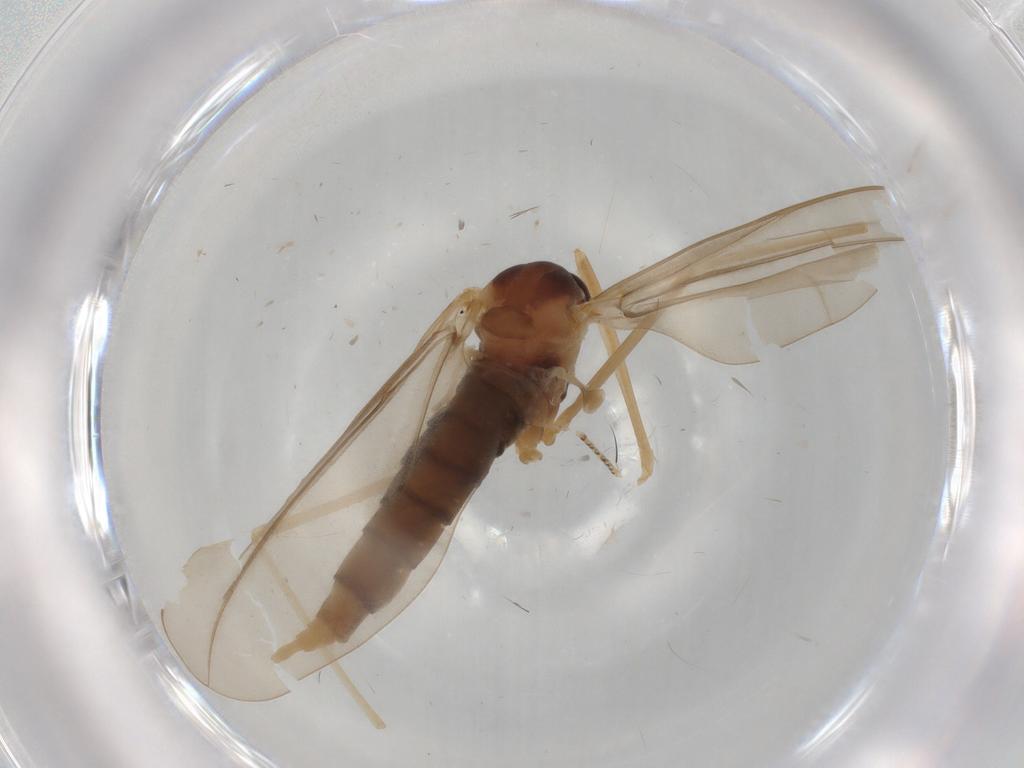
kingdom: Animalia
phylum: Arthropoda
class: Insecta
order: Diptera
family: Cecidomyiidae
